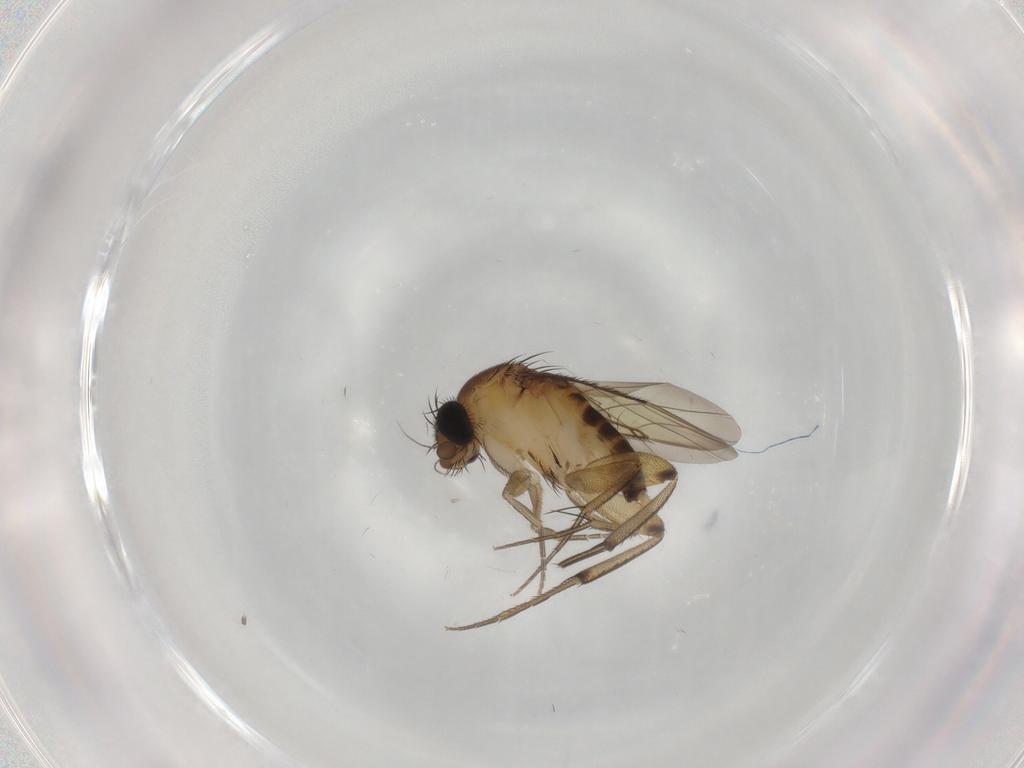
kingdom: Animalia
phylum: Arthropoda
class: Insecta
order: Diptera
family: Phoridae
